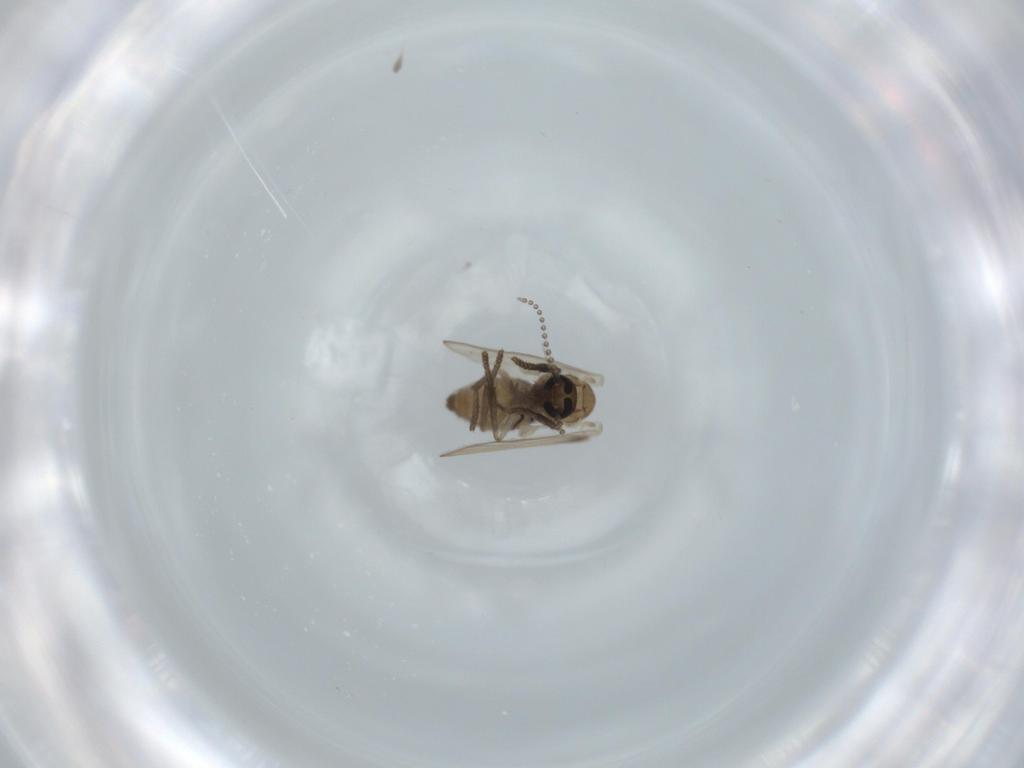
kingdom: Animalia
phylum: Arthropoda
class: Insecta
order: Diptera
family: Psychodidae
